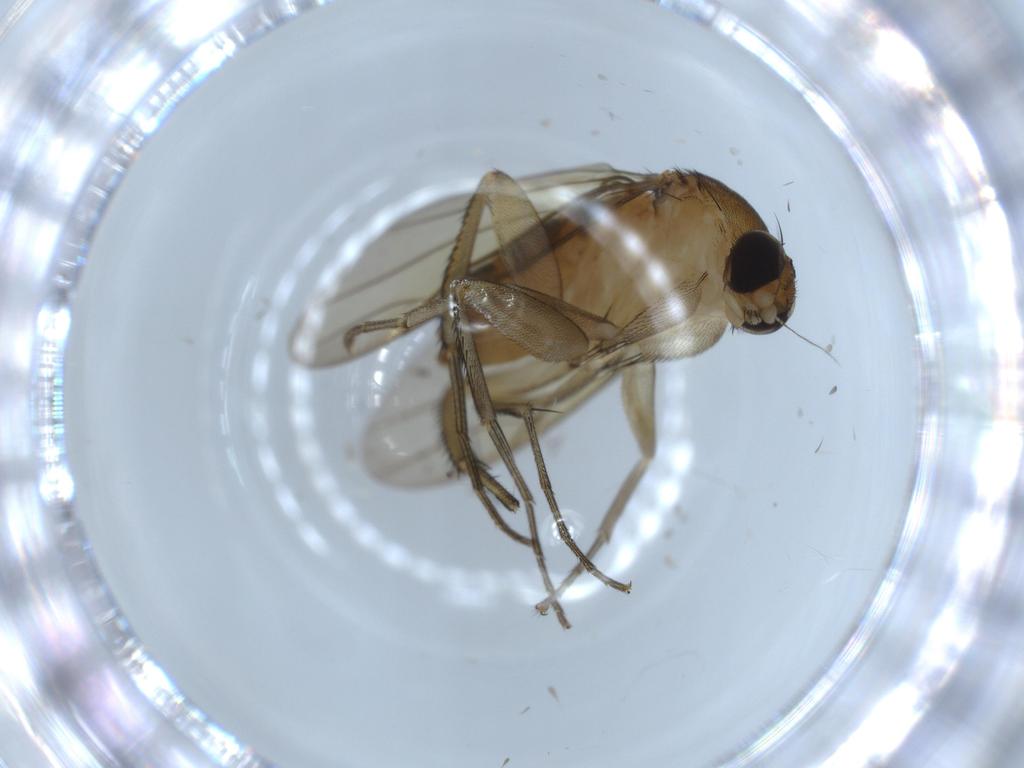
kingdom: Animalia
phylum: Arthropoda
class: Insecta
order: Diptera
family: Phoridae
